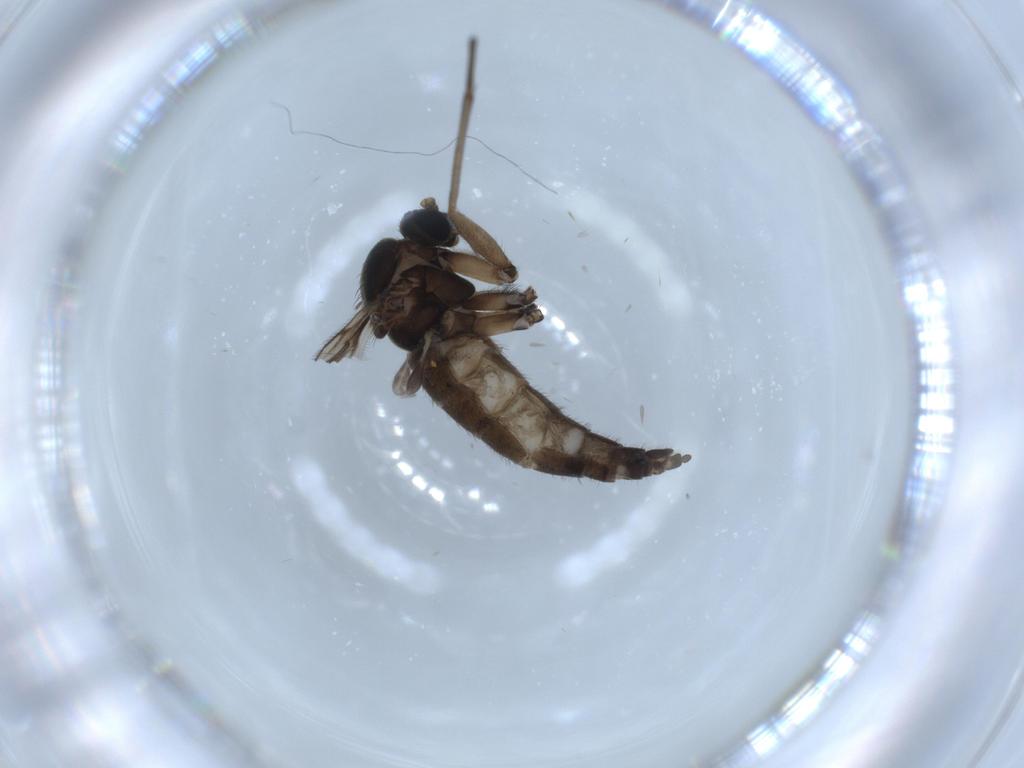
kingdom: Animalia
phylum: Arthropoda
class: Insecta
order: Diptera
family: Sciaridae
